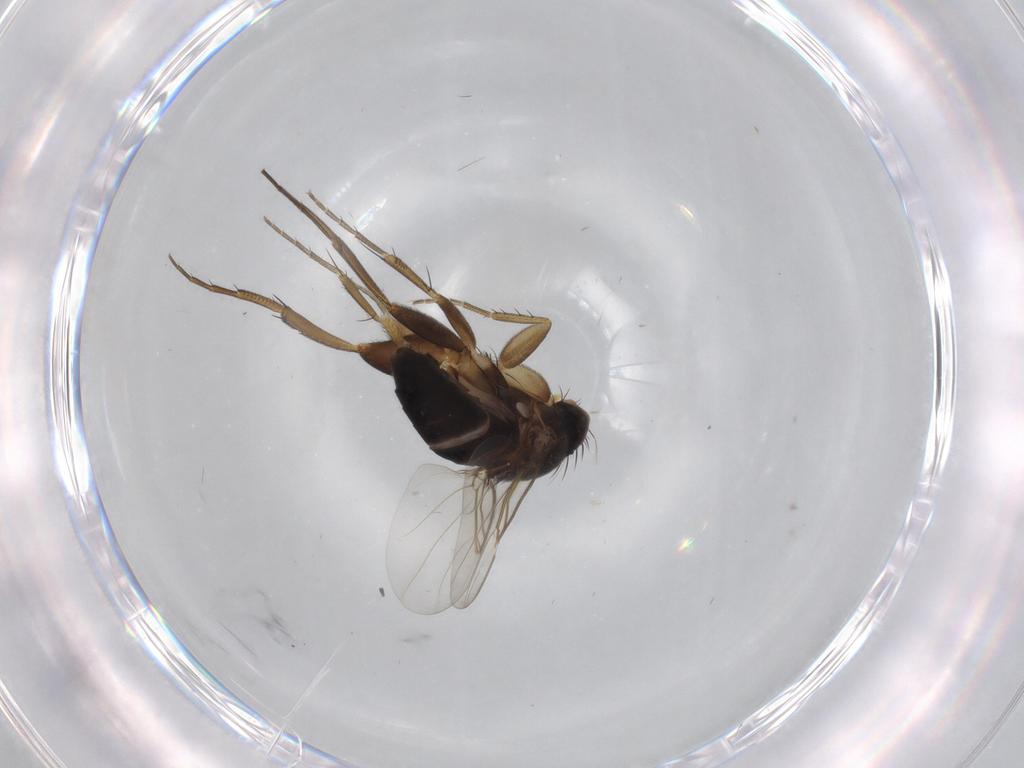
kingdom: Animalia
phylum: Arthropoda
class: Insecta
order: Diptera
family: Phoridae
